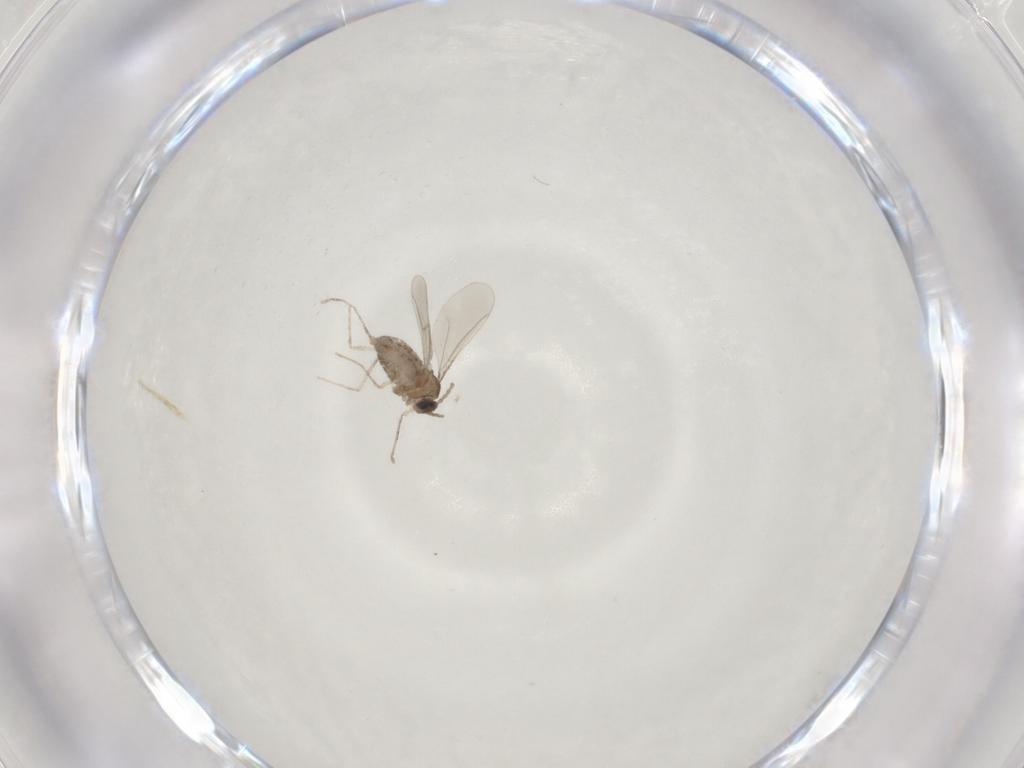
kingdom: Animalia
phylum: Arthropoda
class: Insecta
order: Diptera
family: Cecidomyiidae
